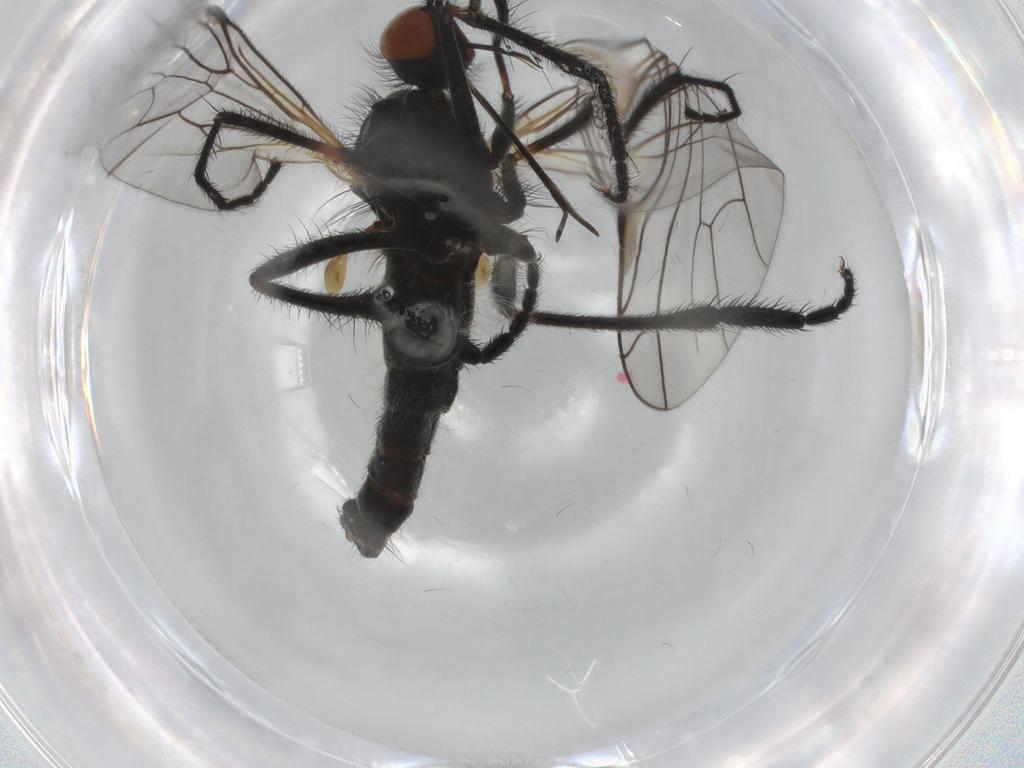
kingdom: Animalia
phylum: Arthropoda
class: Insecta
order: Diptera
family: Empididae
